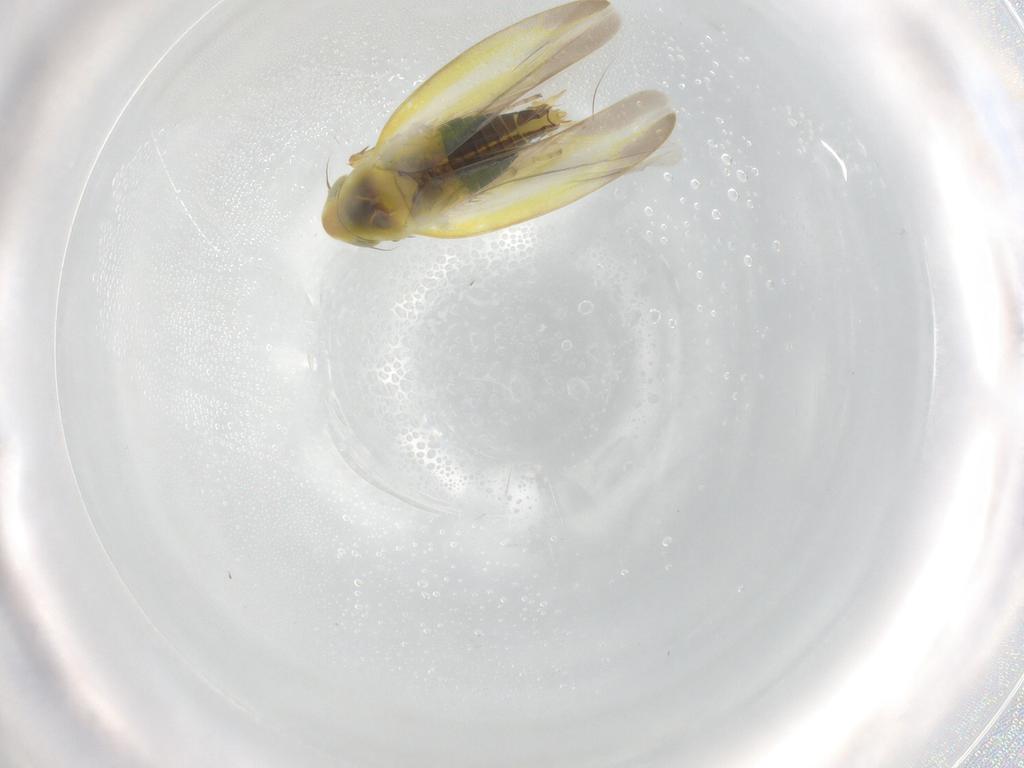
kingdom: Animalia
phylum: Arthropoda
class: Insecta
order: Hemiptera
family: Cicadellidae
